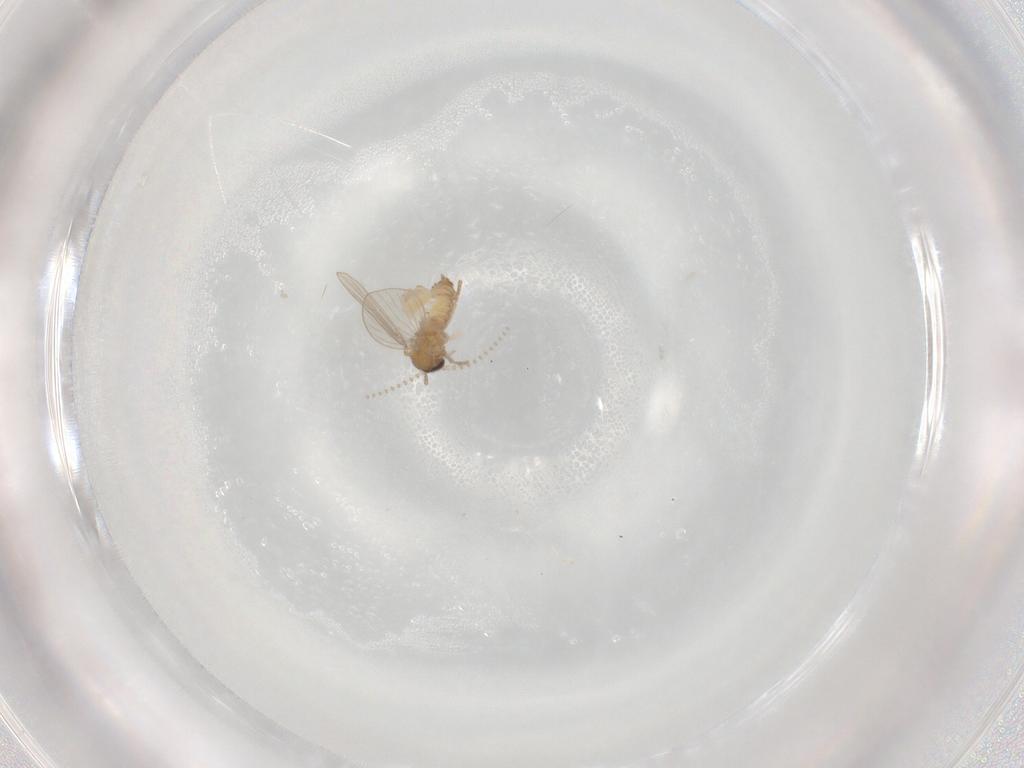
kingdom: Animalia
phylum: Arthropoda
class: Insecta
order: Diptera
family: Psychodidae
